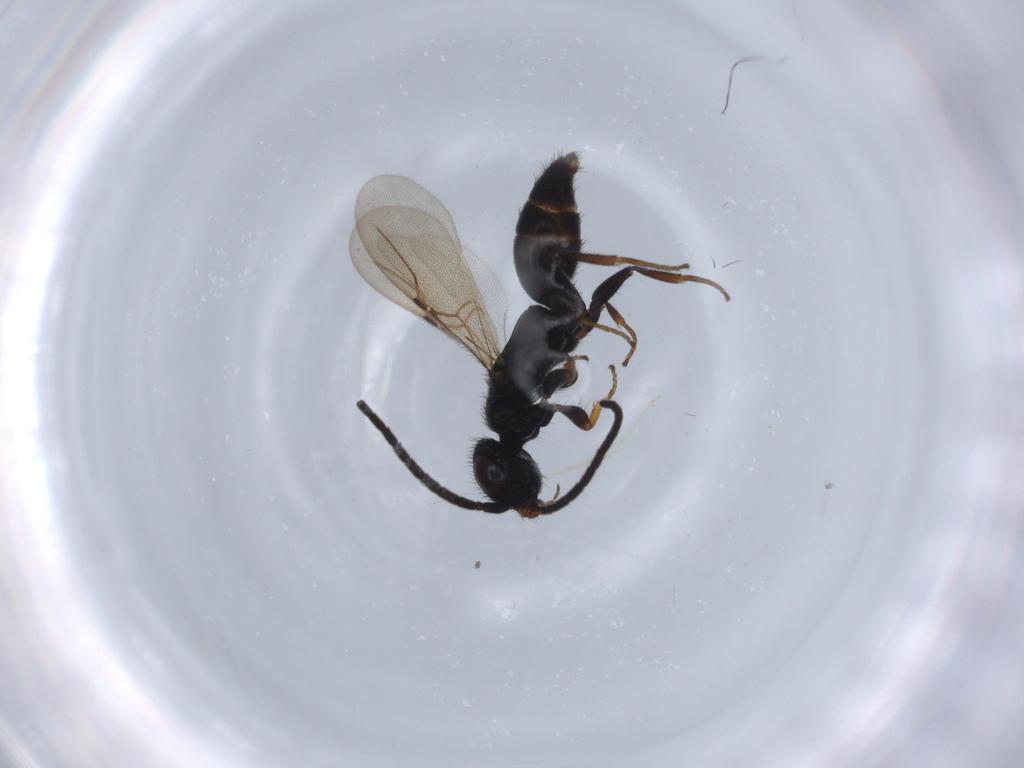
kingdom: Animalia
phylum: Arthropoda
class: Insecta
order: Hymenoptera
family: Bethylidae
